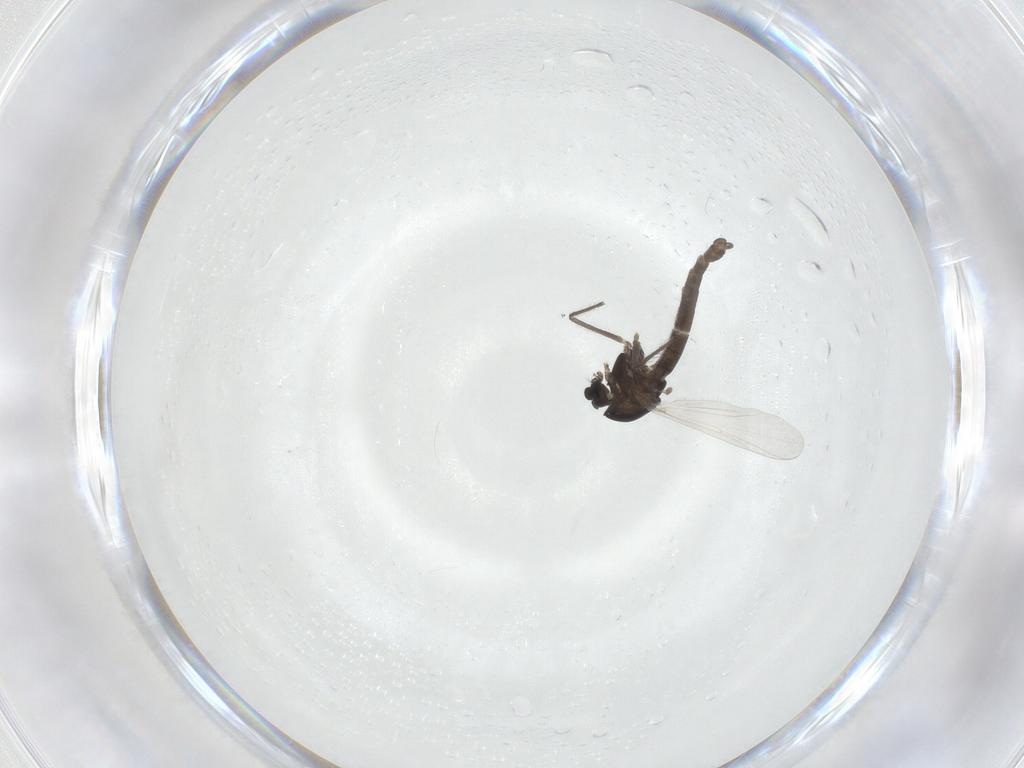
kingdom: Animalia
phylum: Arthropoda
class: Insecta
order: Diptera
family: Chironomidae
